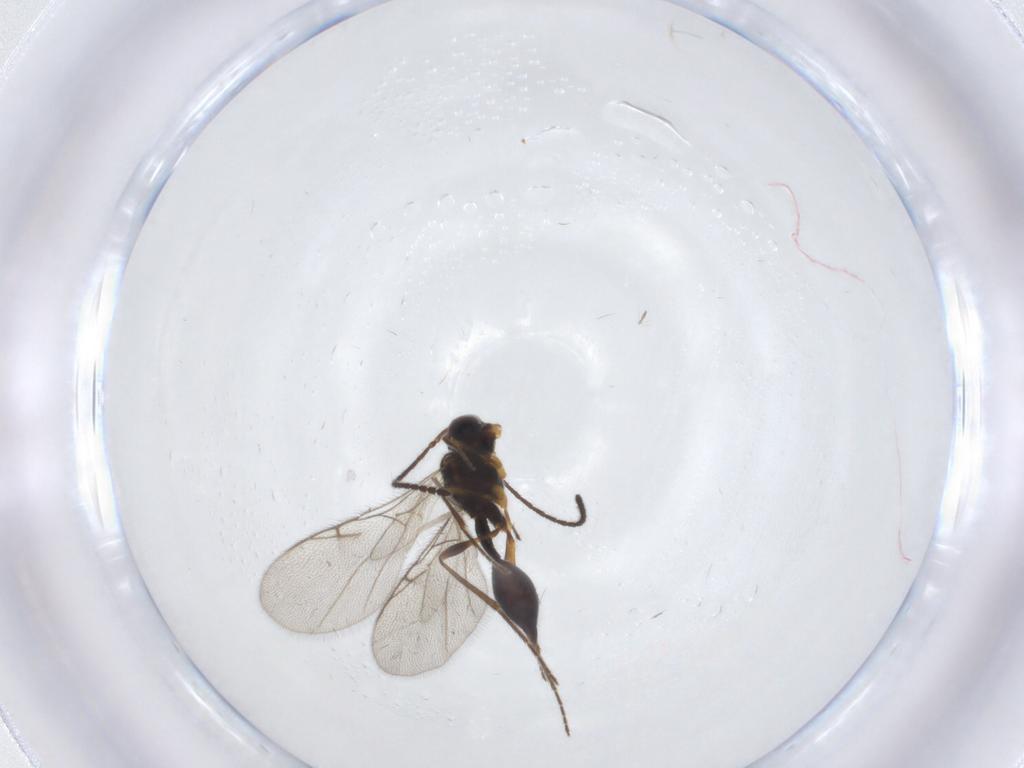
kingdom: Animalia
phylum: Arthropoda
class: Insecta
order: Hymenoptera
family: Diapriidae
